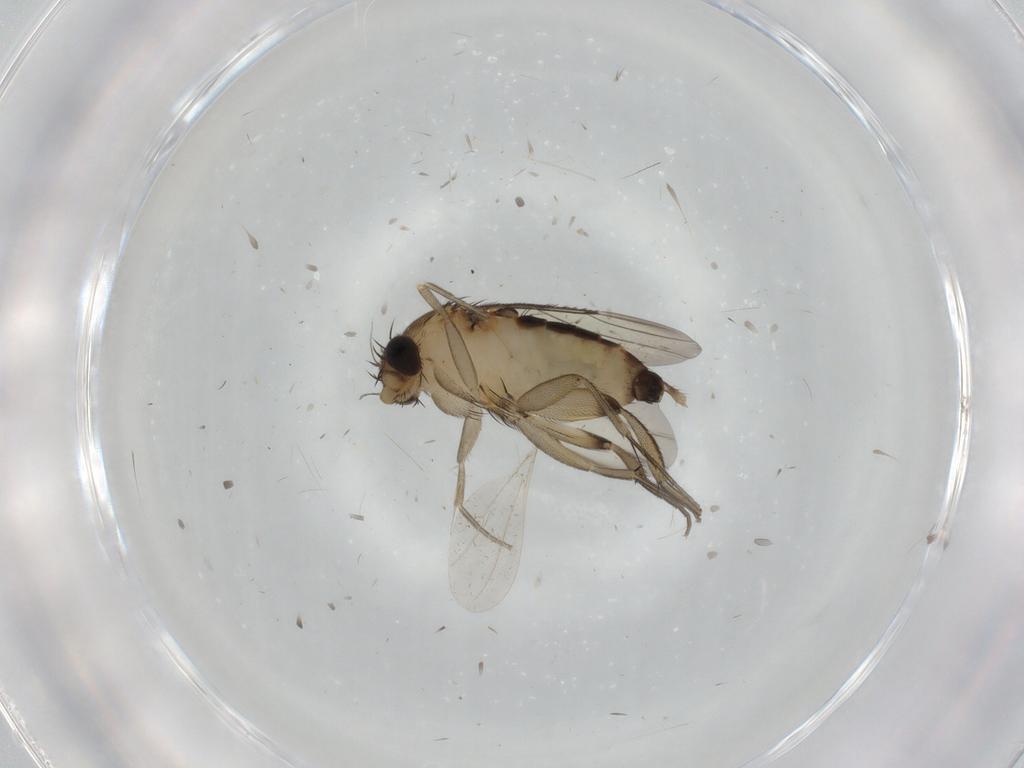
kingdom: Animalia
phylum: Arthropoda
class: Insecta
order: Diptera
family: Phoridae
